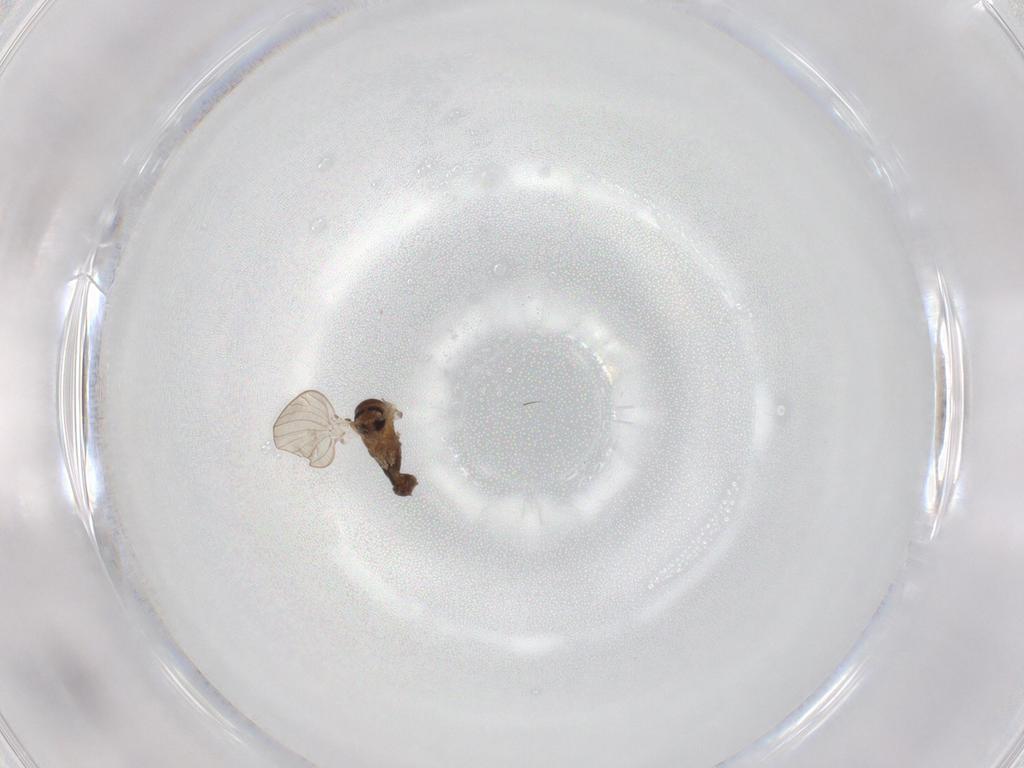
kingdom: Animalia
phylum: Arthropoda
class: Insecta
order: Diptera
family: Psychodidae
